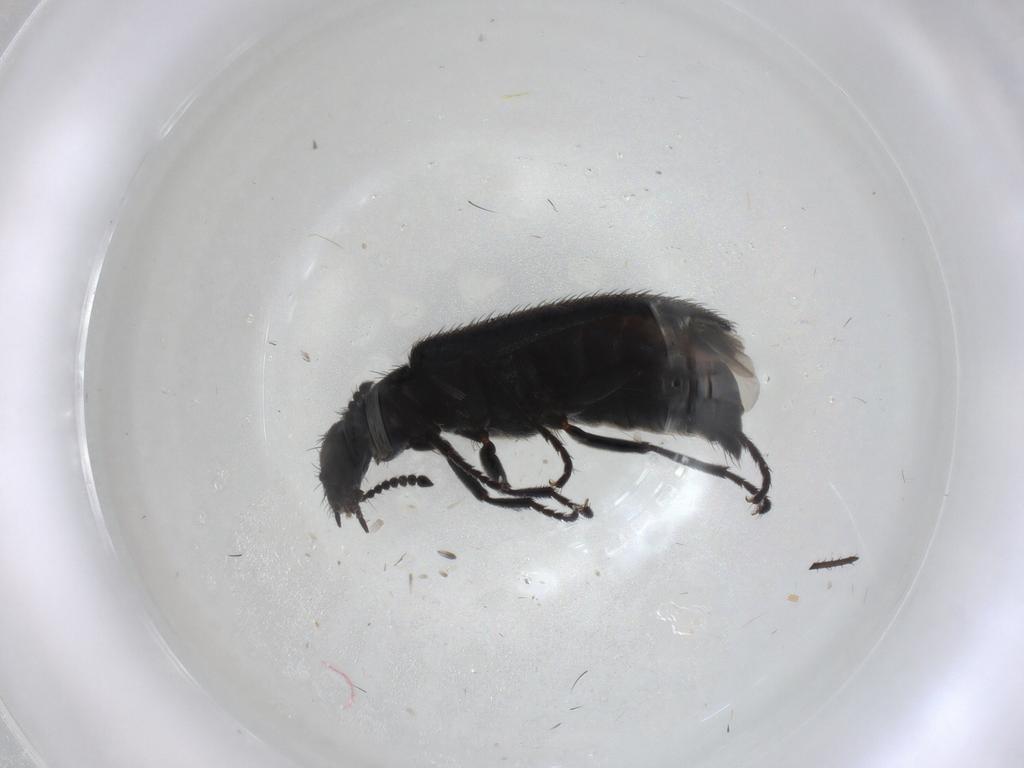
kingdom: Animalia
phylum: Arthropoda
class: Insecta
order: Coleoptera
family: Melyridae
